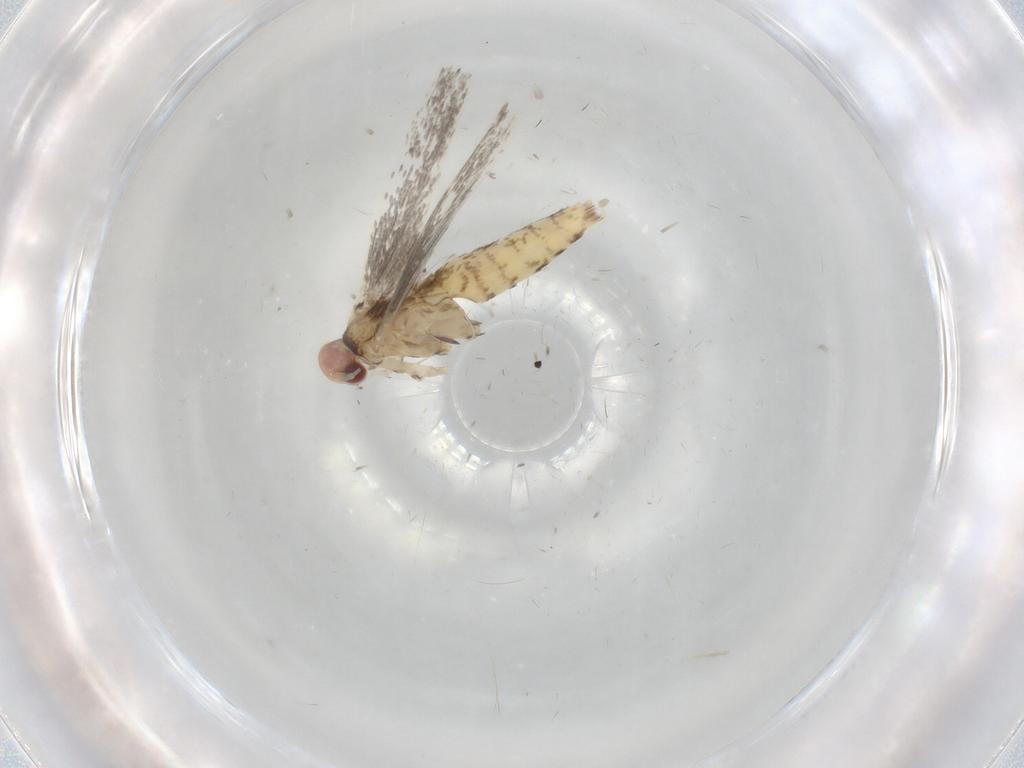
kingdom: Animalia
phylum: Arthropoda
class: Insecta
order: Lepidoptera
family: Gracillariidae
